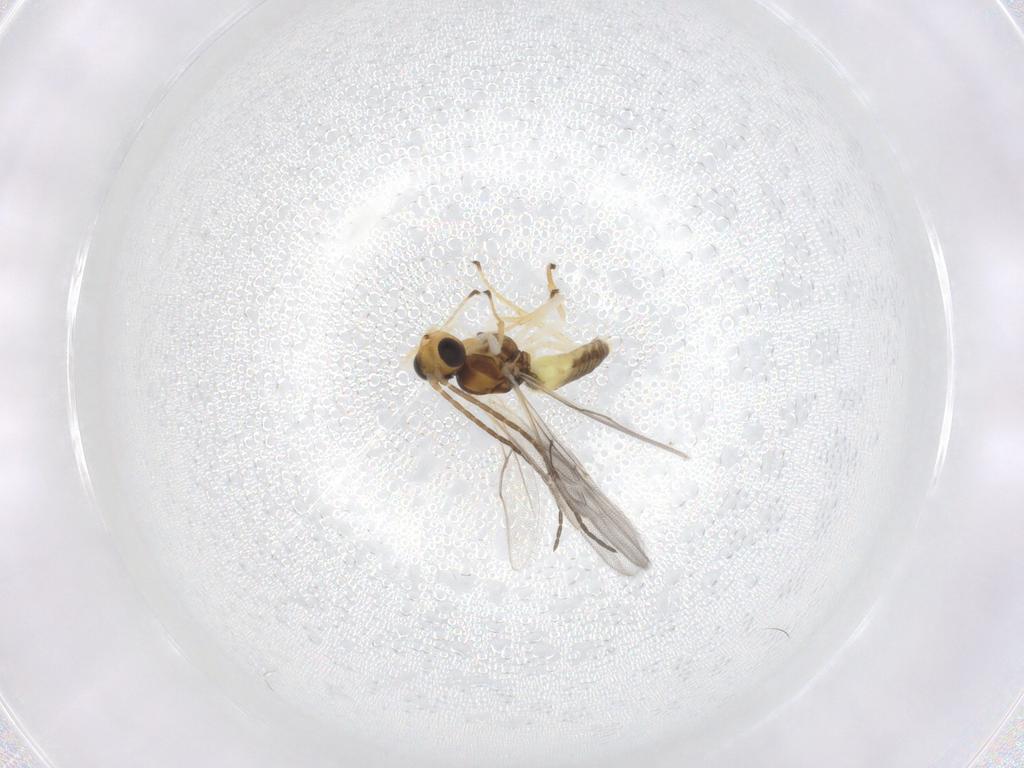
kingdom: Animalia
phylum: Arthropoda
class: Insecta
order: Hymenoptera
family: Braconidae
